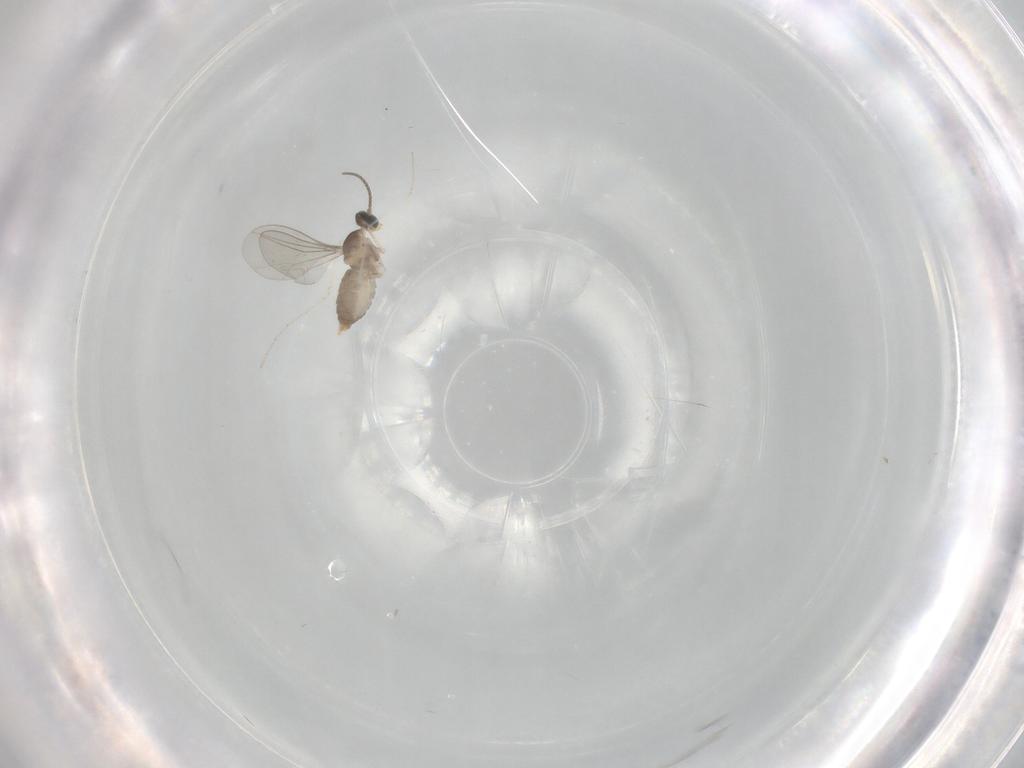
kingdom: Animalia
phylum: Arthropoda
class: Insecta
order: Diptera
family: Cecidomyiidae
